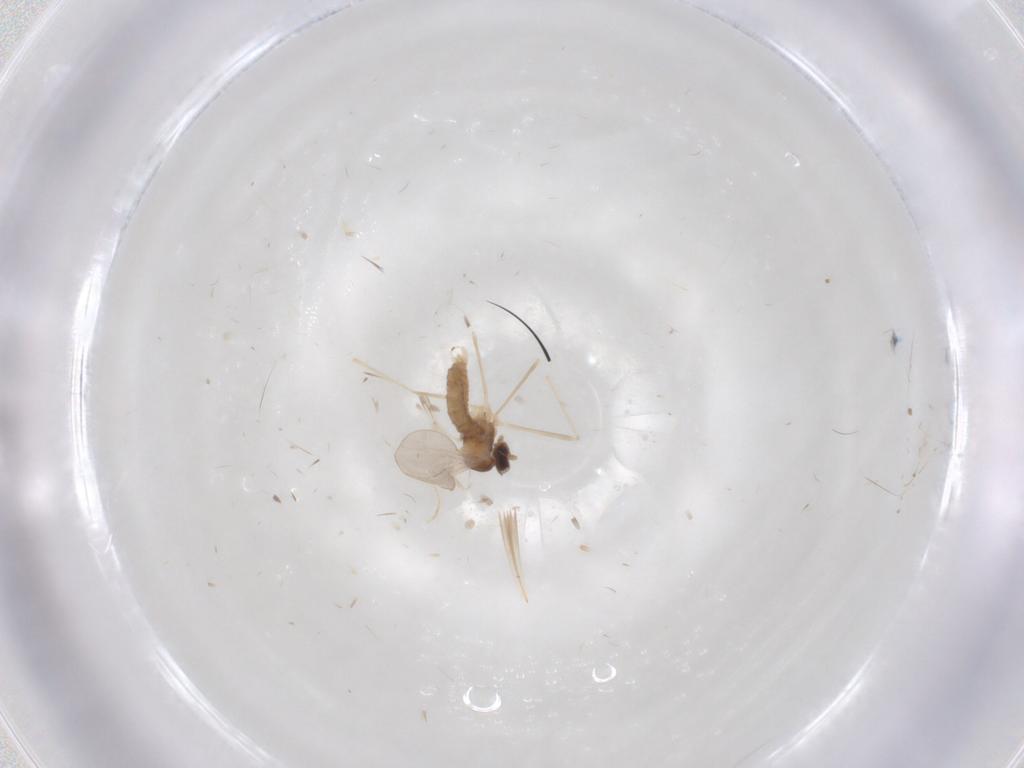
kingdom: Animalia
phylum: Arthropoda
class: Insecta
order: Diptera
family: Cecidomyiidae
